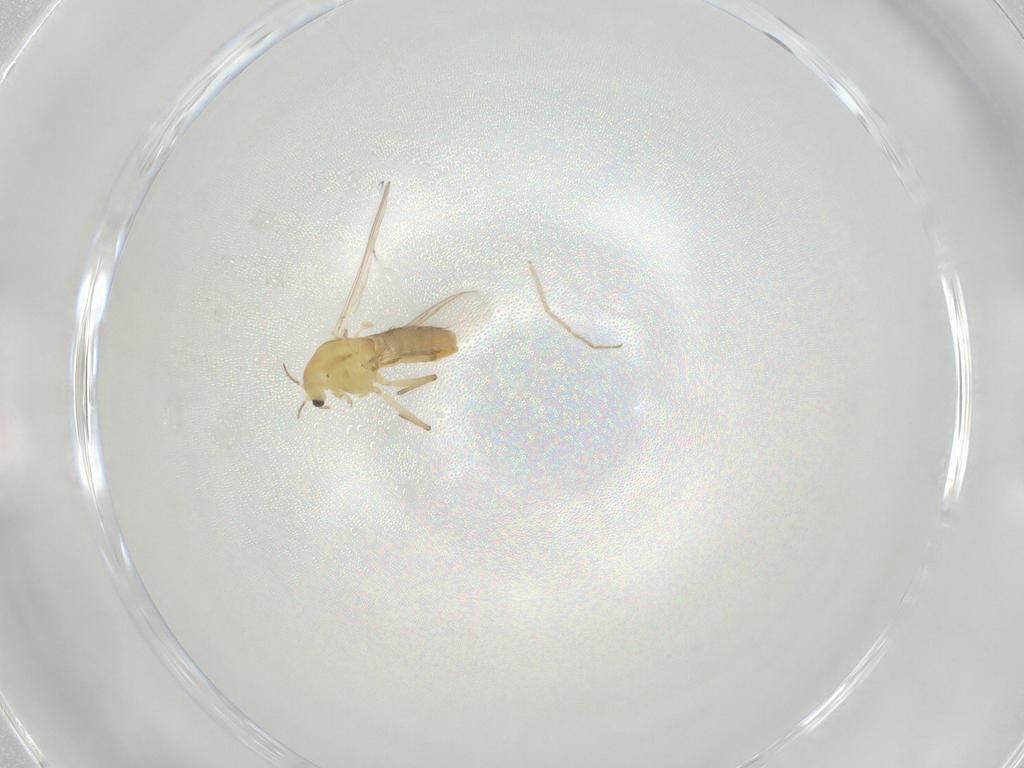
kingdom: Animalia
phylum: Arthropoda
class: Insecta
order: Diptera
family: Chironomidae
